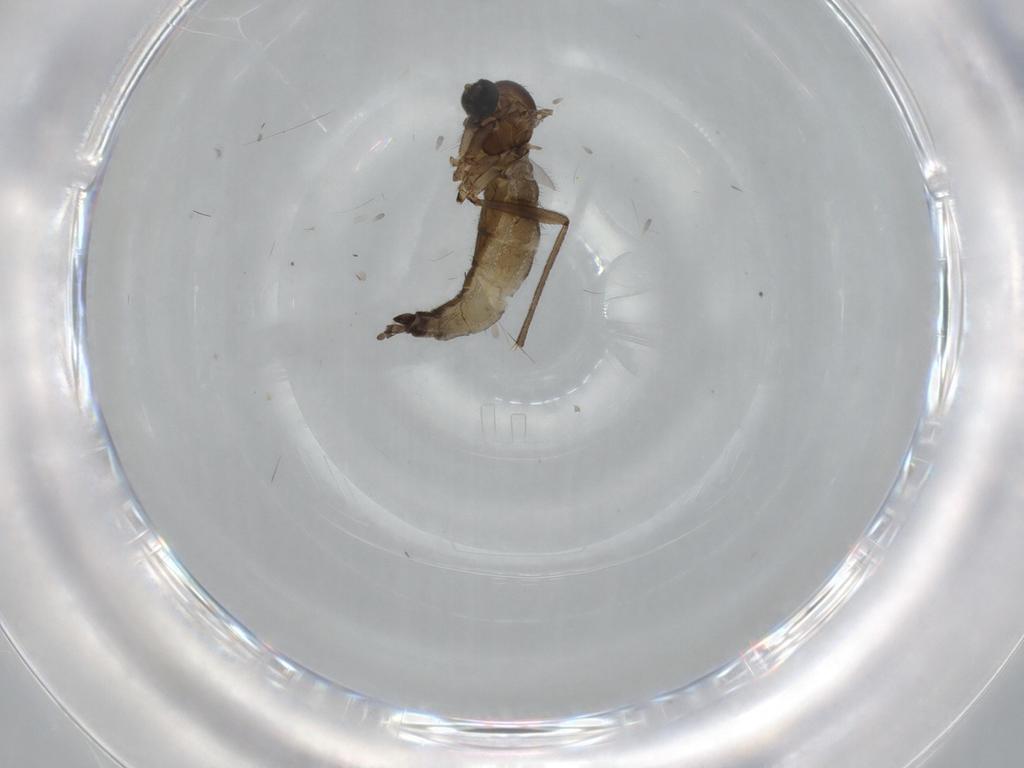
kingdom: Animalia
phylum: Arthropoda
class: Insecta
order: Diptera
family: Sciaridae
